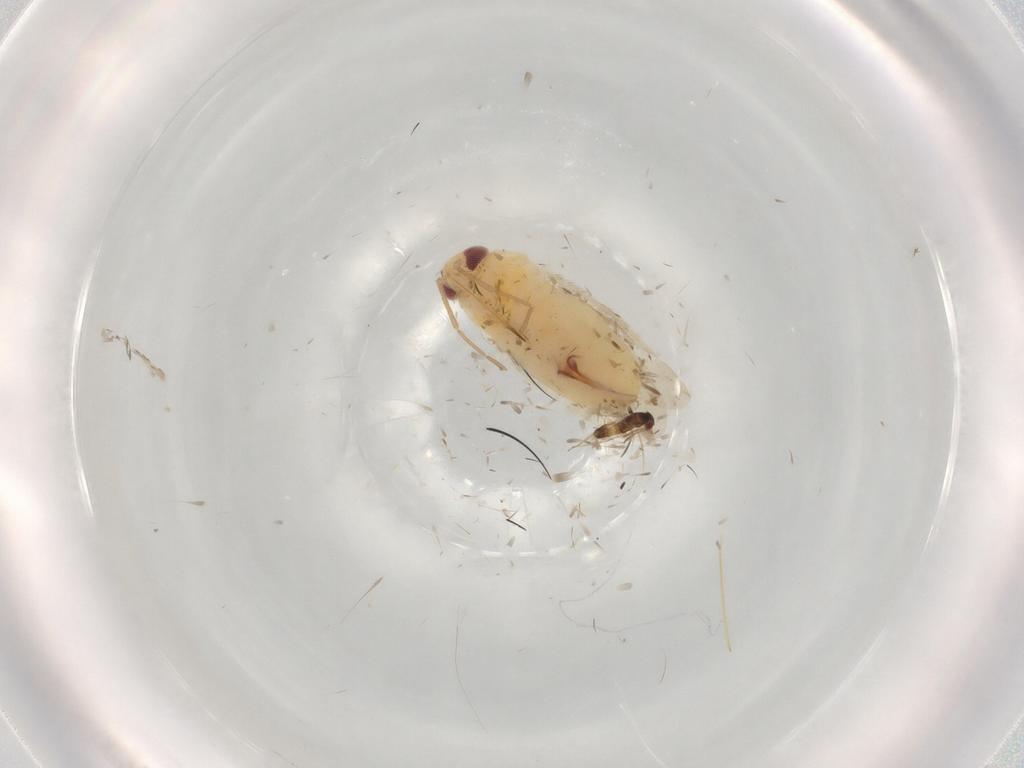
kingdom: Animalia
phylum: Arthropoda
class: Insecta
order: Hemiptera
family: Miridae
